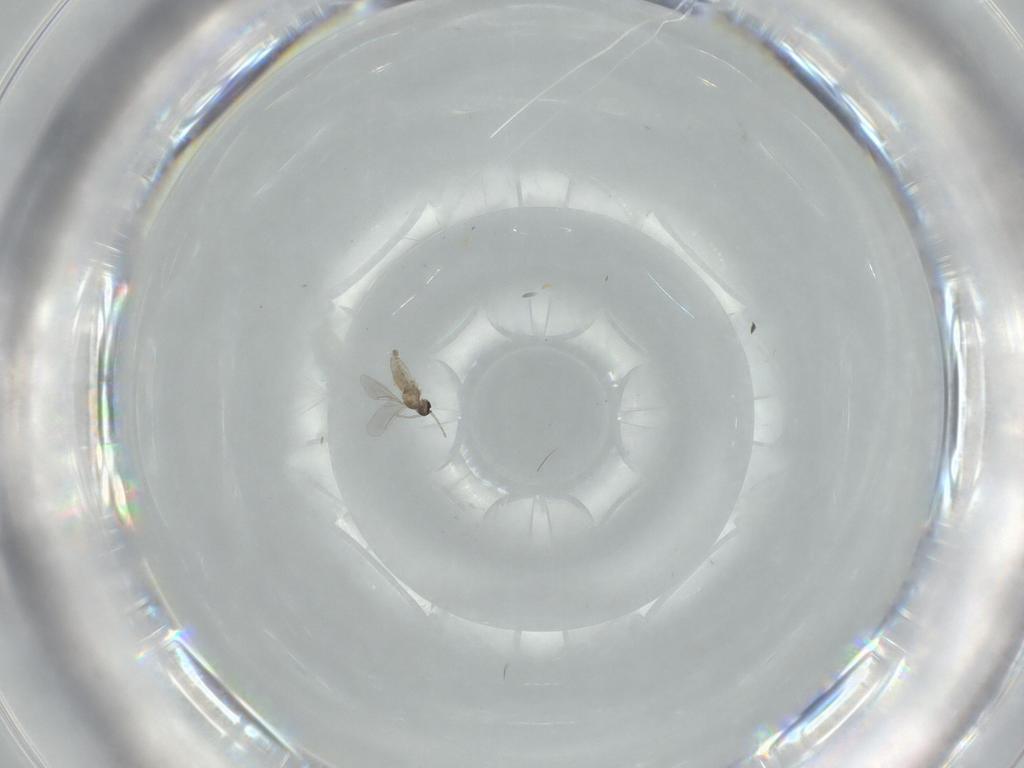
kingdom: Animalia
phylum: Arthropoda
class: Insecta
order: Diptera
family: Sciaridae
